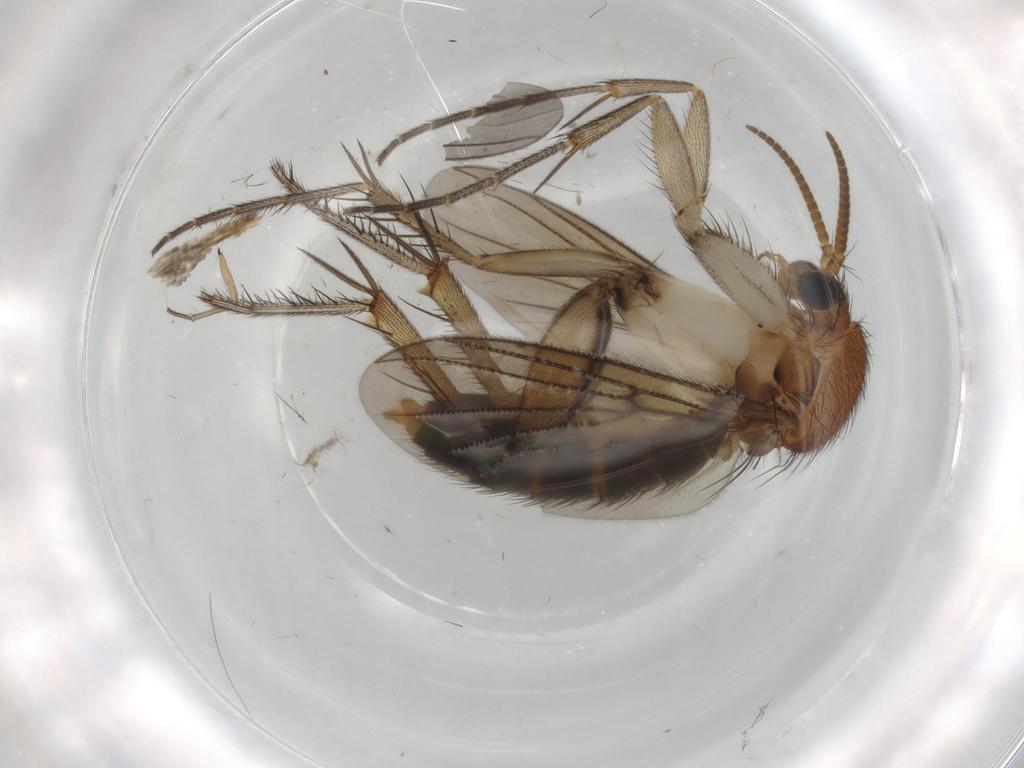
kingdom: Animalia
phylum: Arthropoda
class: Insecta
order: Diptera
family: Sciaridae
